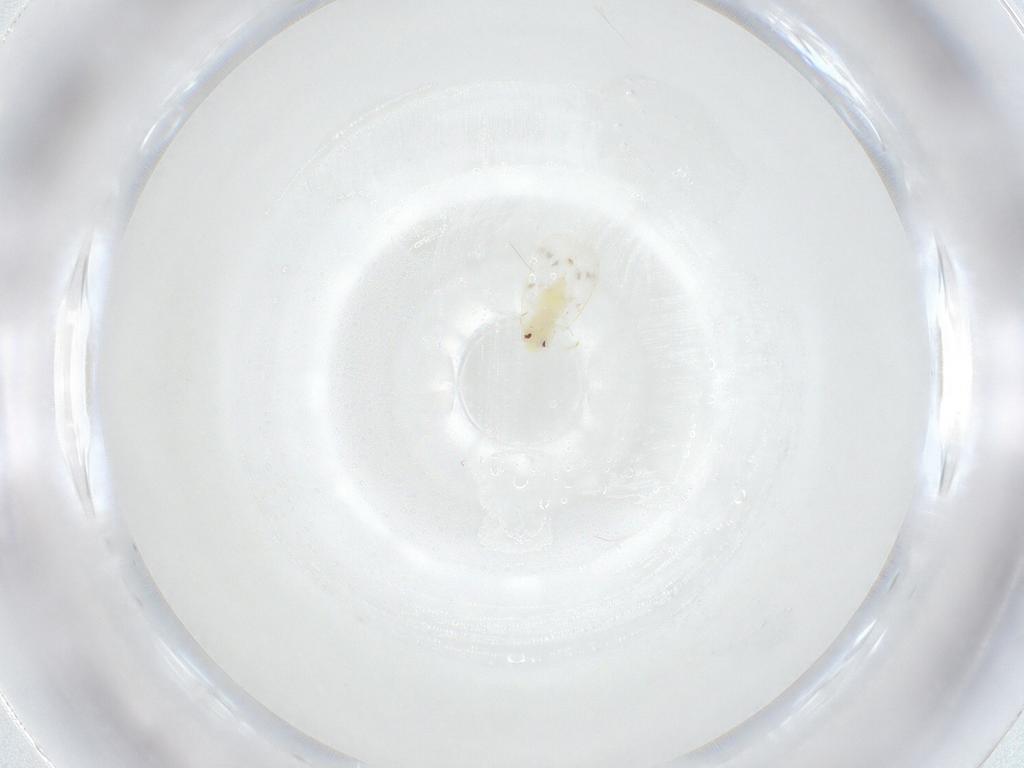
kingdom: Animalia
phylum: Arthropoda
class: Insecta
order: Hemiptera
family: Aleyrodidae
